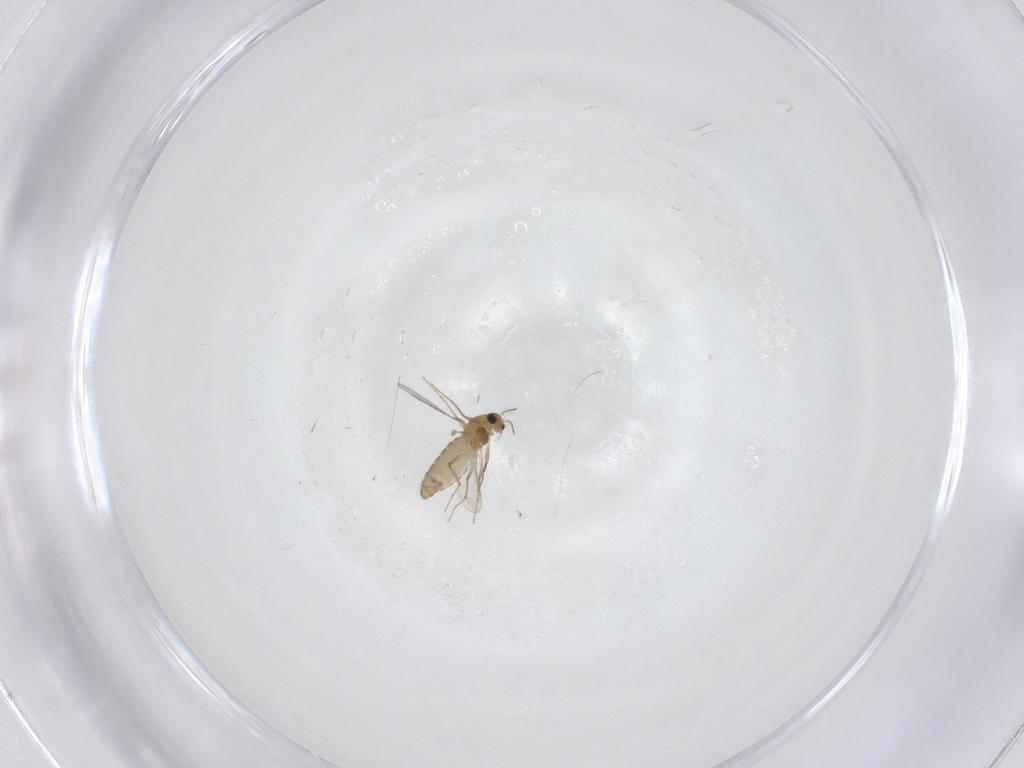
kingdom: Animalia
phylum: Arthropoda
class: Insecta
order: Diptera
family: Chironomidae
